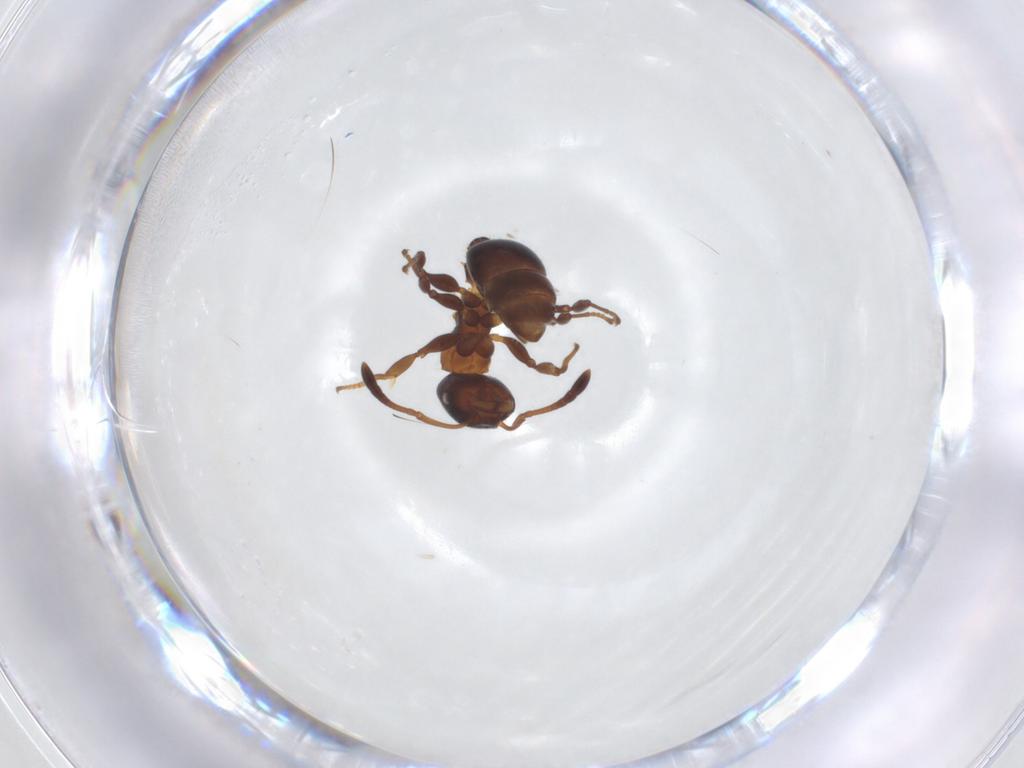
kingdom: Animalia
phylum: Arthropoda
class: Insecta
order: Hymenoptera
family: Formicidae
